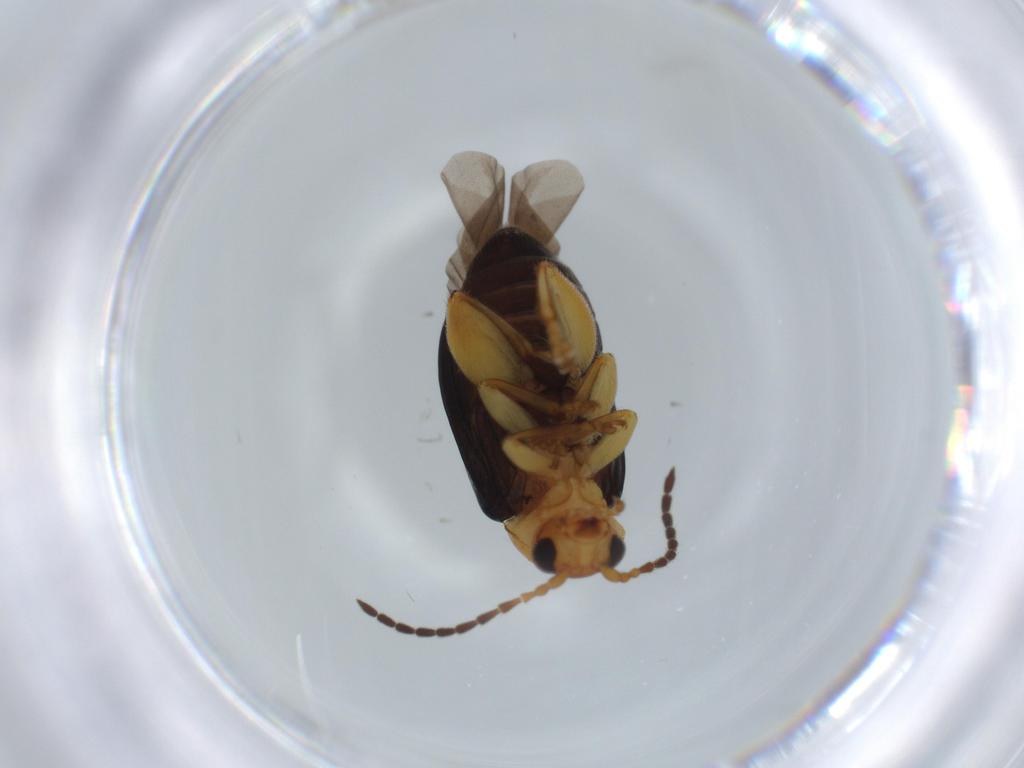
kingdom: Animalia
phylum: Arthropoda
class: Insecta
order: Coleoptera
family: Chrysomelidae
